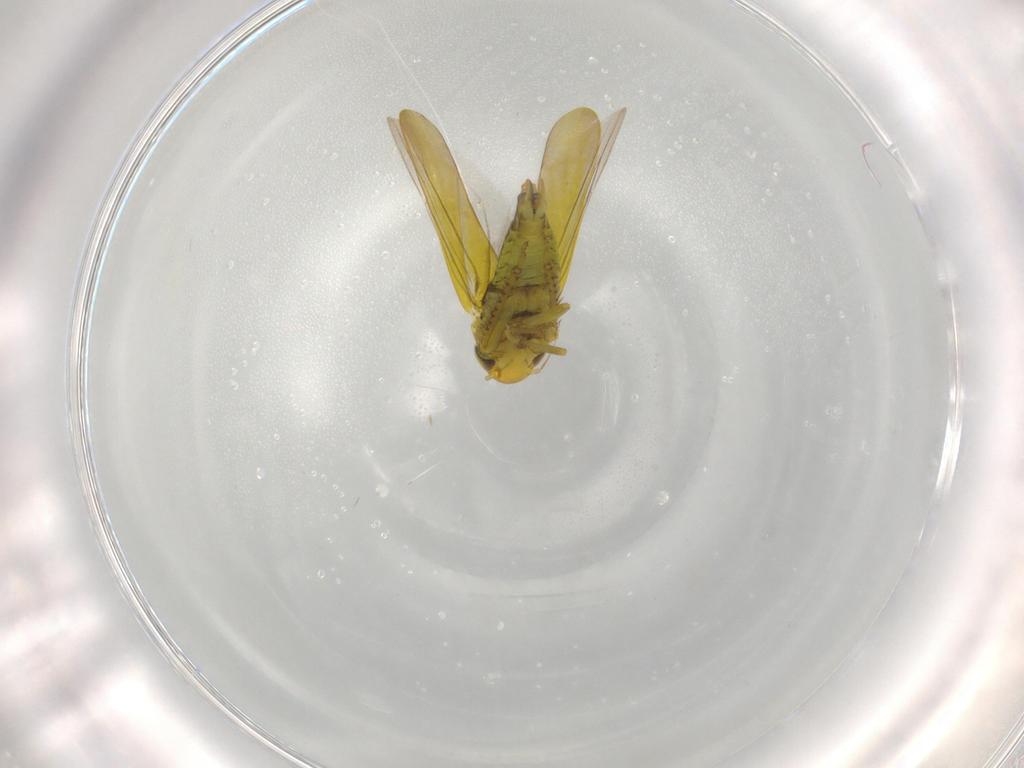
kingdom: Animalia
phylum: Arthropoda
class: Insecta
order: Hemiptera
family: Cicadellidae
